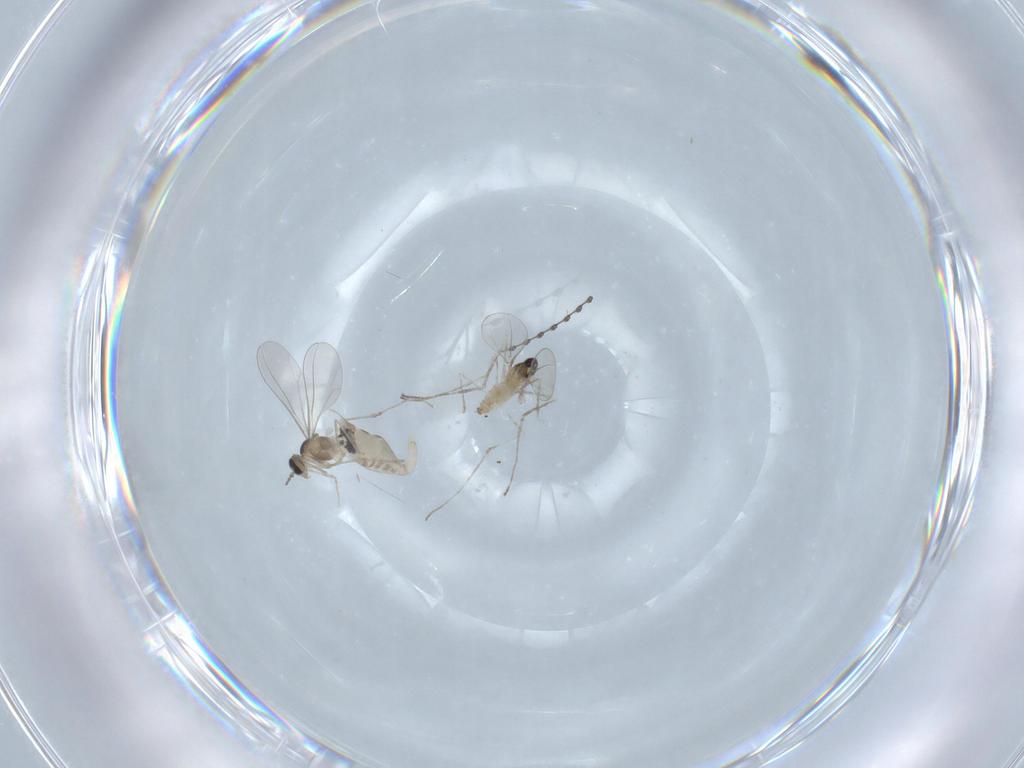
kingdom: Animalia
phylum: Arthropoda
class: Insecta
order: Diptera
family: Cecidomyiidae
